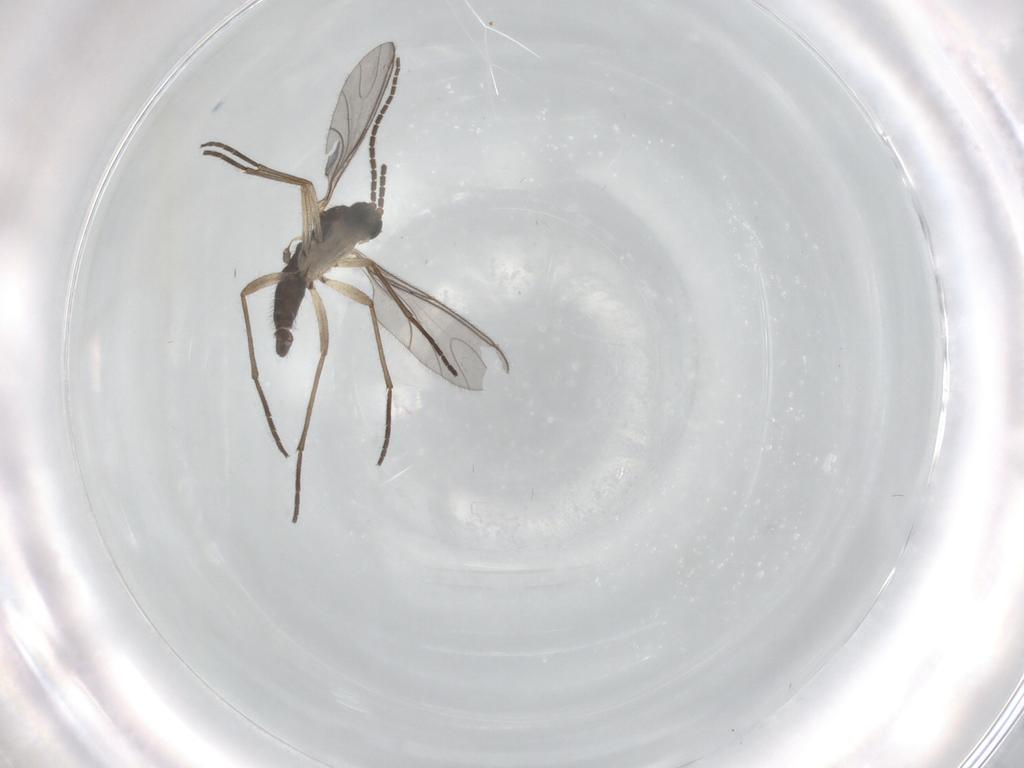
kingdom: Animalia
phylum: Arthropoda
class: Insecta
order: Diptera
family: Sciaridae
